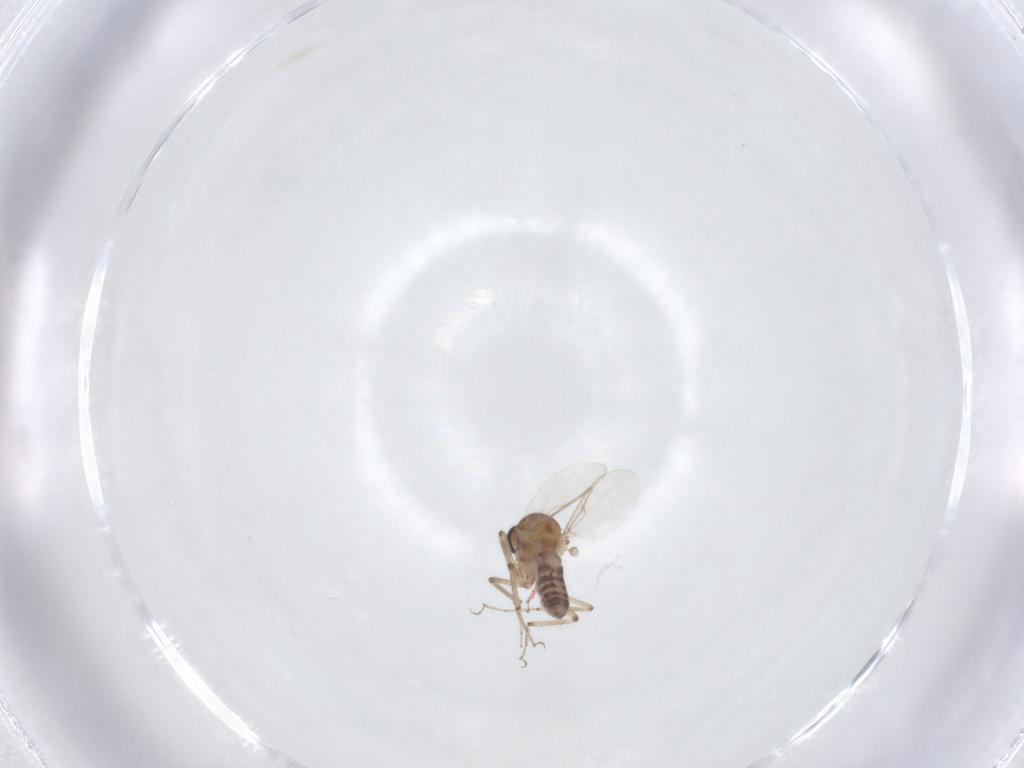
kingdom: Animalia
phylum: Arthropoda
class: Insecta
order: Diptera
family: Ceratopogonidae
